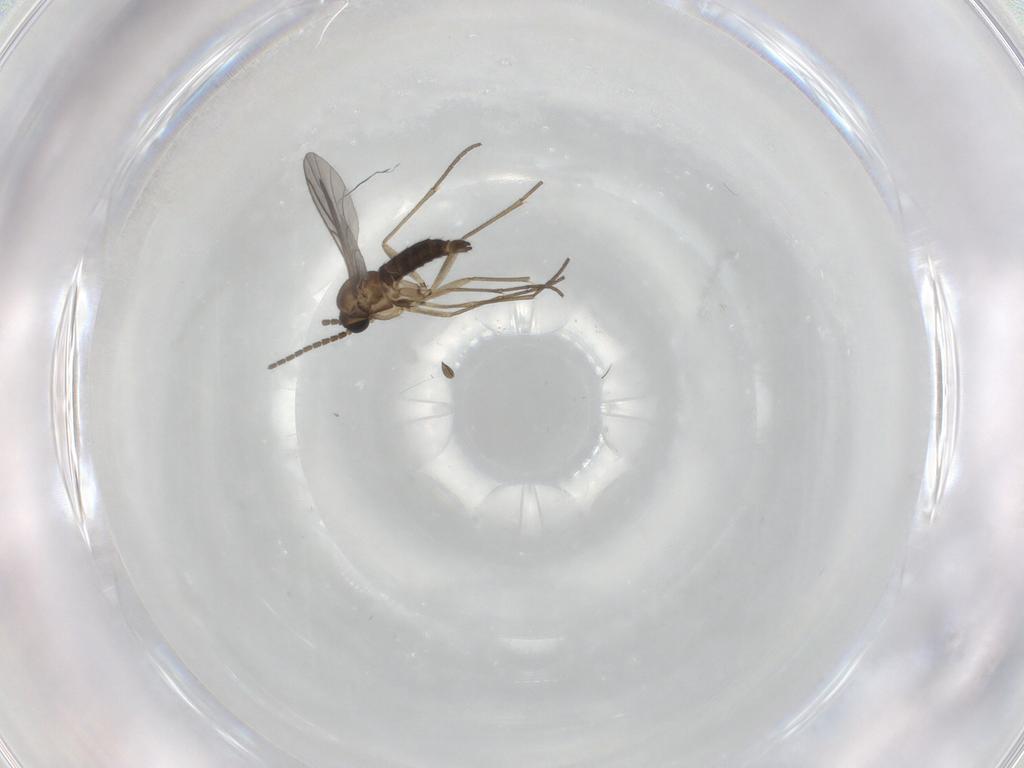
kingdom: Animalia
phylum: Arthropoda
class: Insecta
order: Diptera
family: Sciaridae
